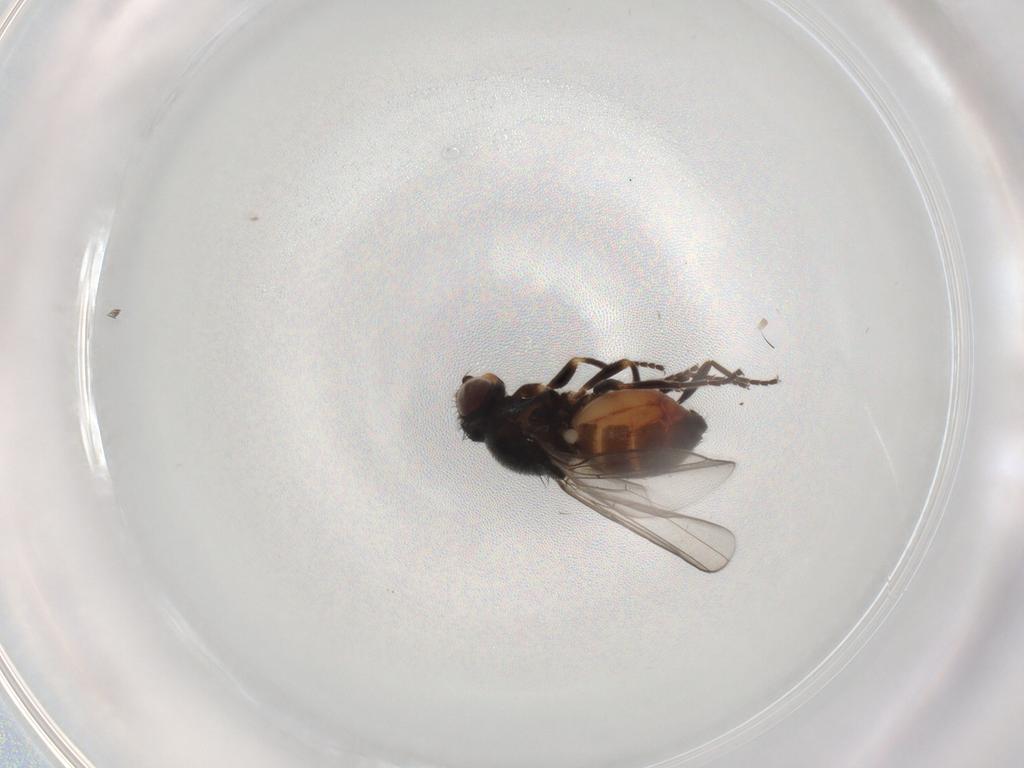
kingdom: Animalia
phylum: Arthropoda
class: Insecta
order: Diptera
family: Chloropidae
